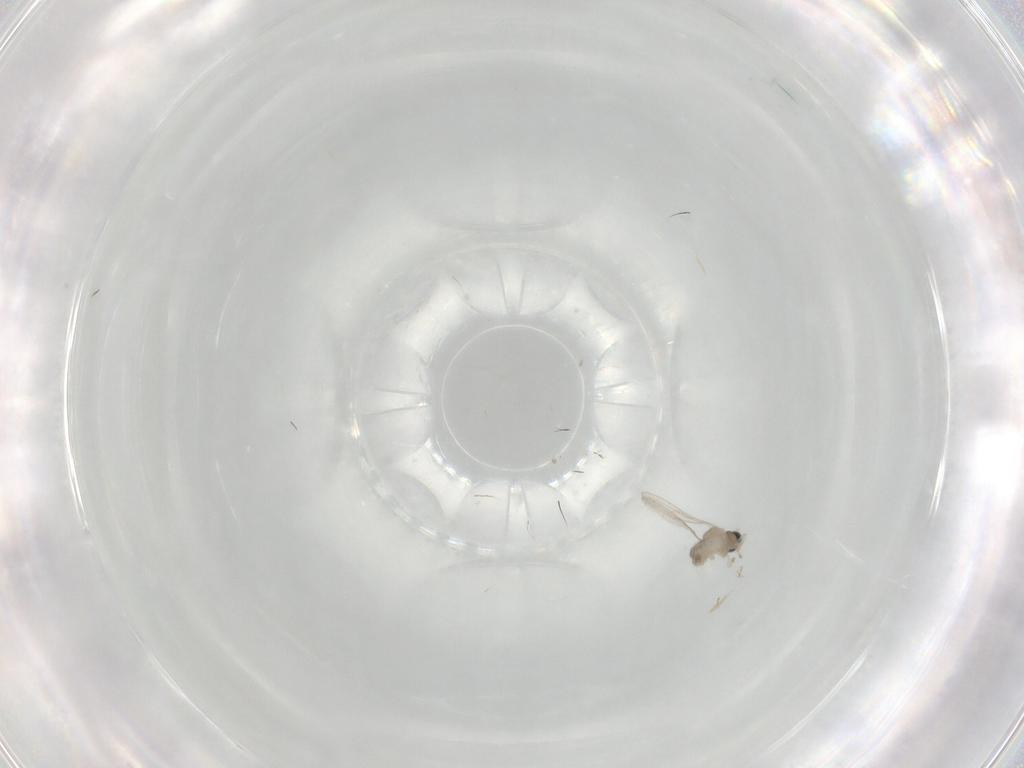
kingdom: Animalia
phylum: Arthropoda
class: Insecta
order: Diptera
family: Cecidomyiidae
